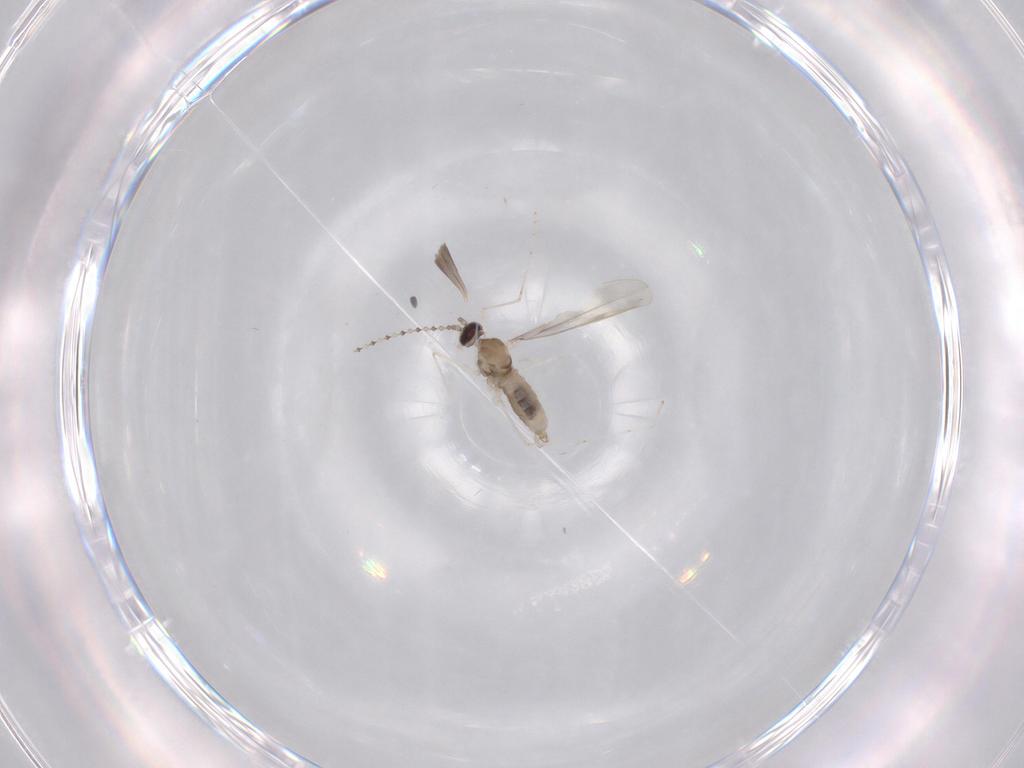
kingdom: Animalia
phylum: Arthropoda
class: Insecta
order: Diptera
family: Cecidomyiidae
